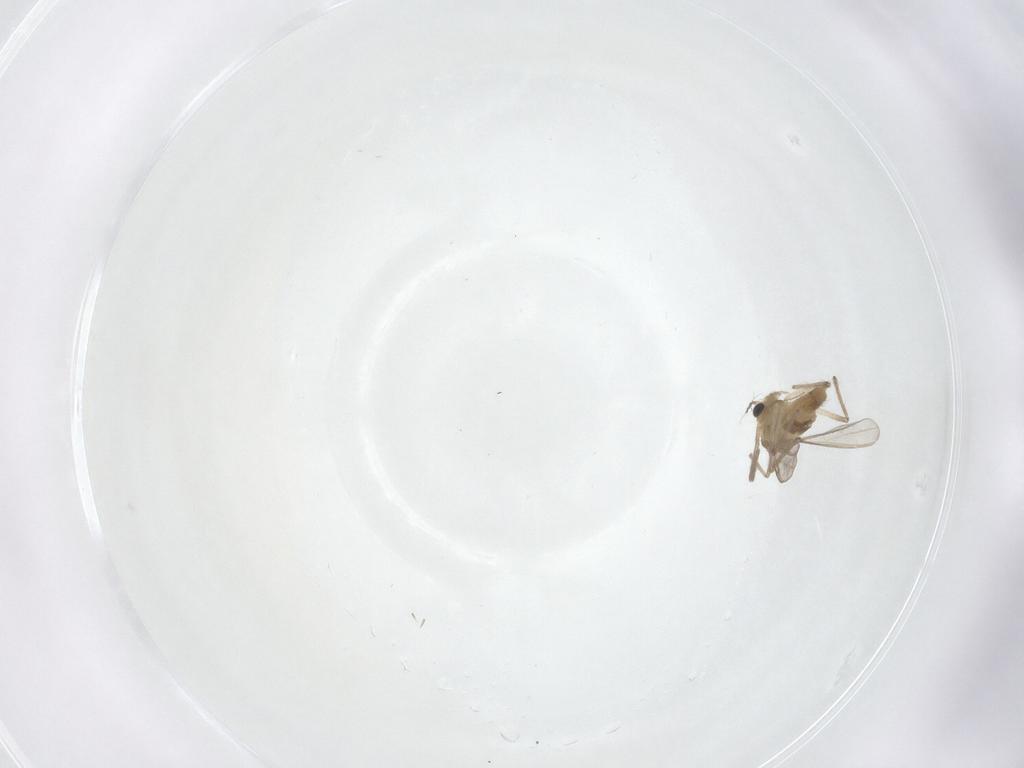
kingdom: Animalia
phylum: Arthropoda
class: Insecta
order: Diptera
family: Chironomidae
